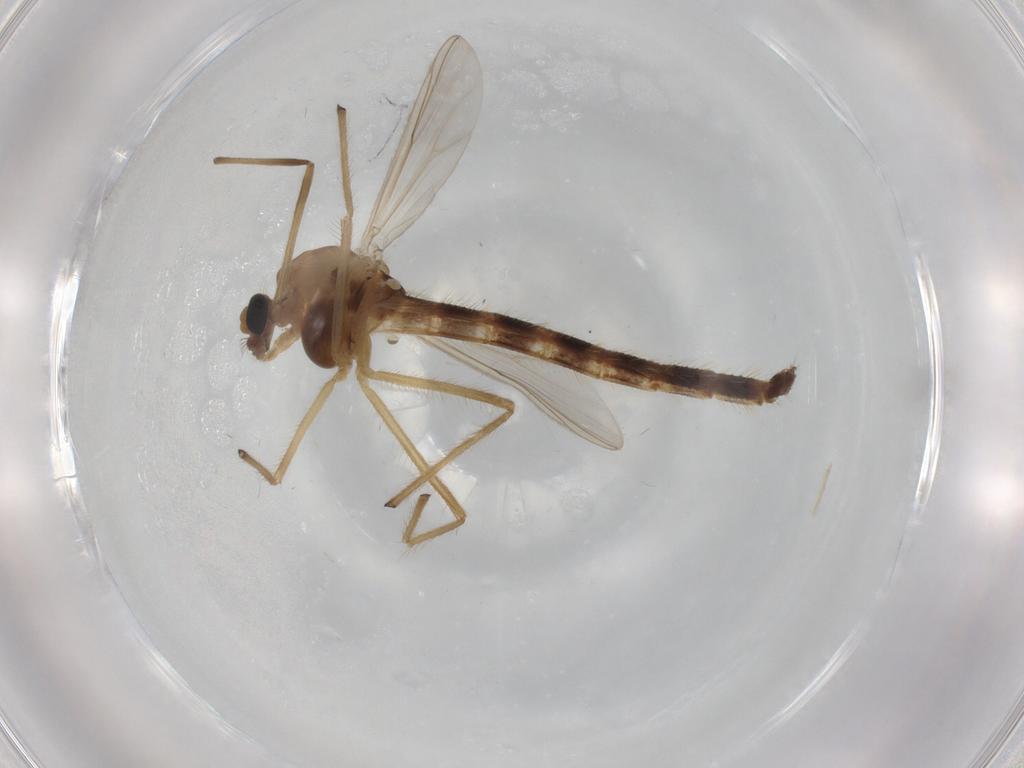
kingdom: Animalia
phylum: Arthropoda
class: Insecta
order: Diptera
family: Chironomidae
